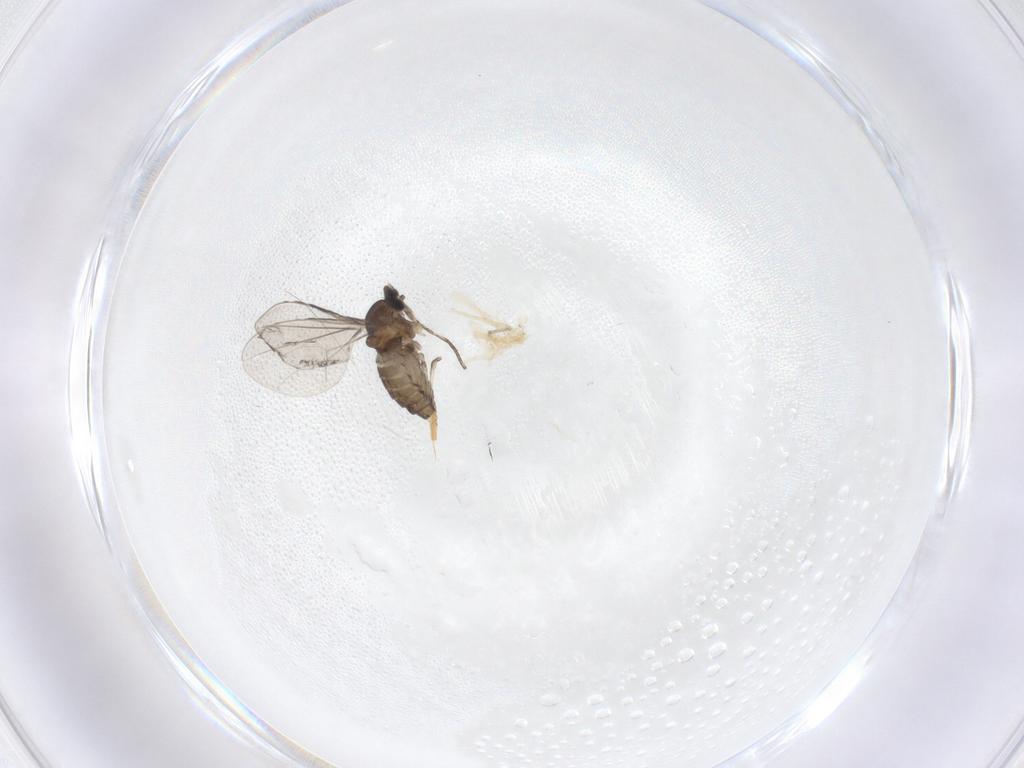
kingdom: Animalia
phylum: Arthropoda
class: Insecta
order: Diptera
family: Cecidomyiidae
